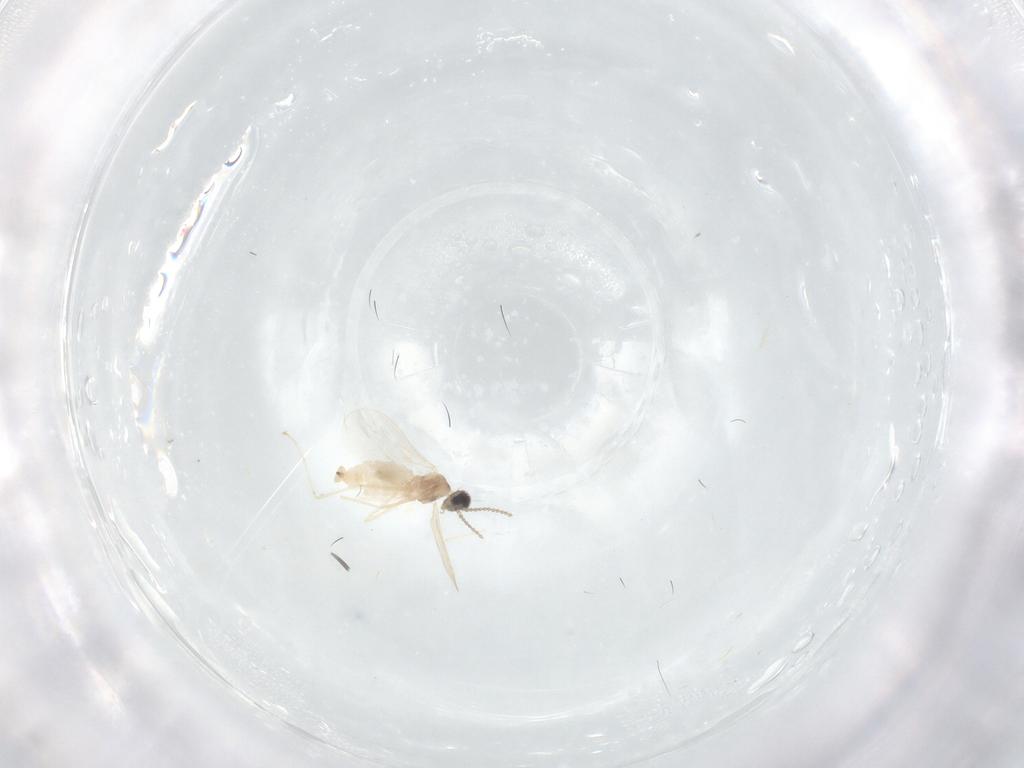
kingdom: Animalia
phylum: Arthropoda
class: Insecta
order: Diptera
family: Cecidomyiidae
